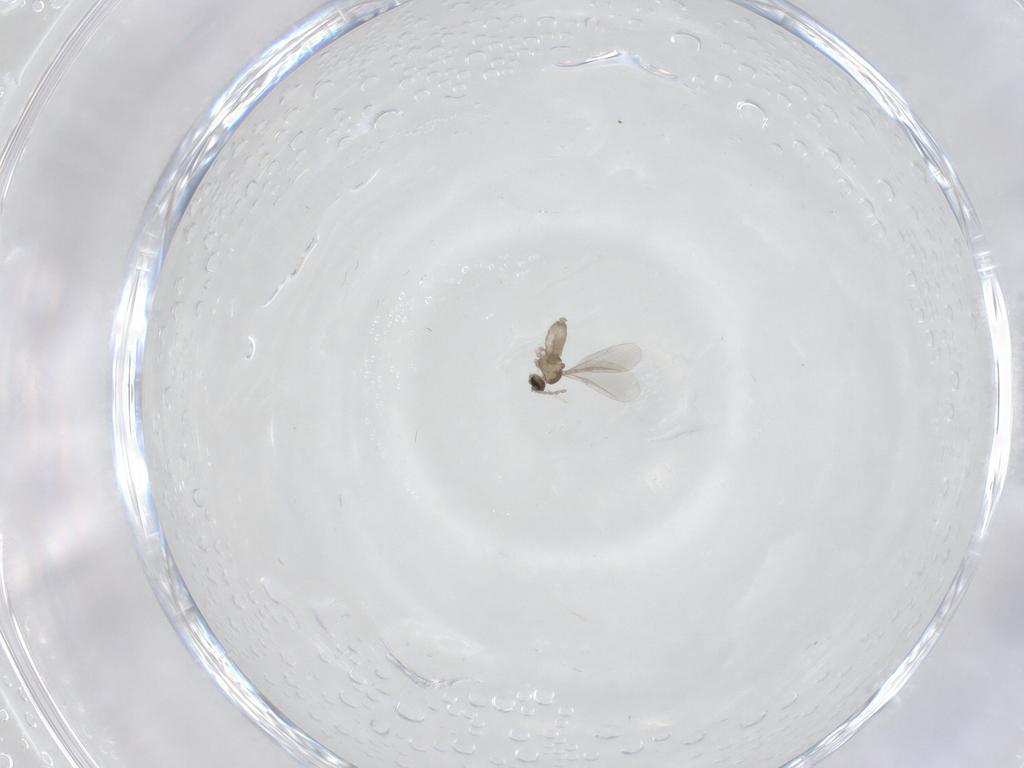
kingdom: Animalia
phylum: Arthropoda
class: Insecta
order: Diptera
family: Cecidomyiidae
